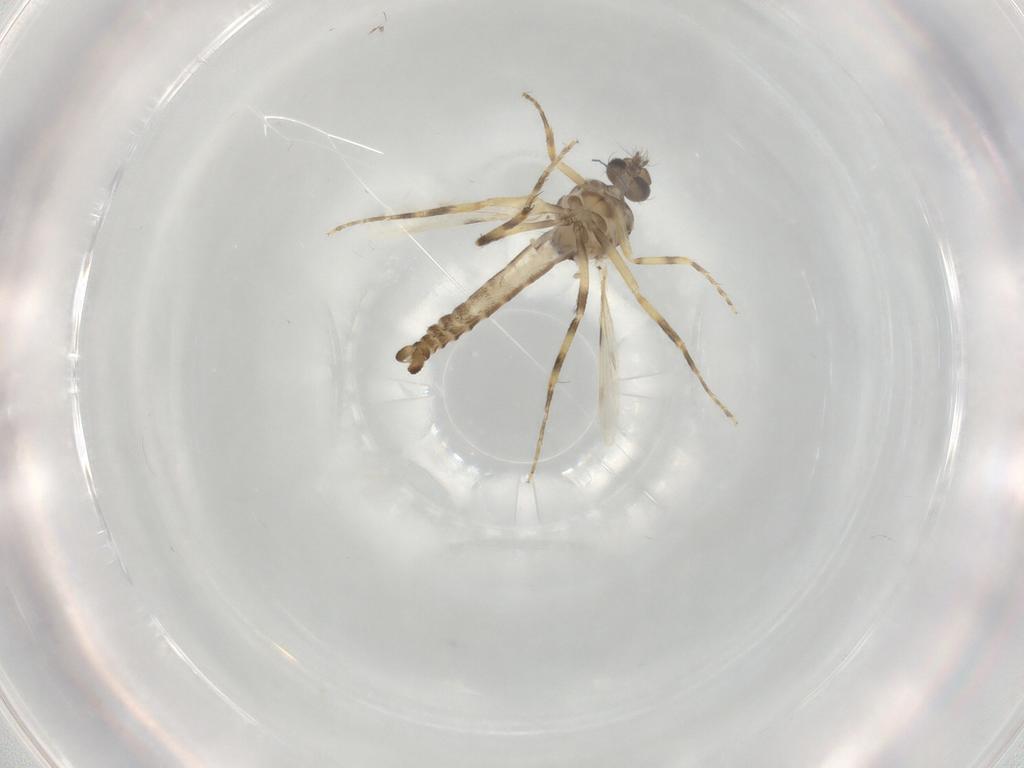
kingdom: Animalia
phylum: Arthropoda
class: Insecta
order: Diptera
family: Ceratopogonidae
